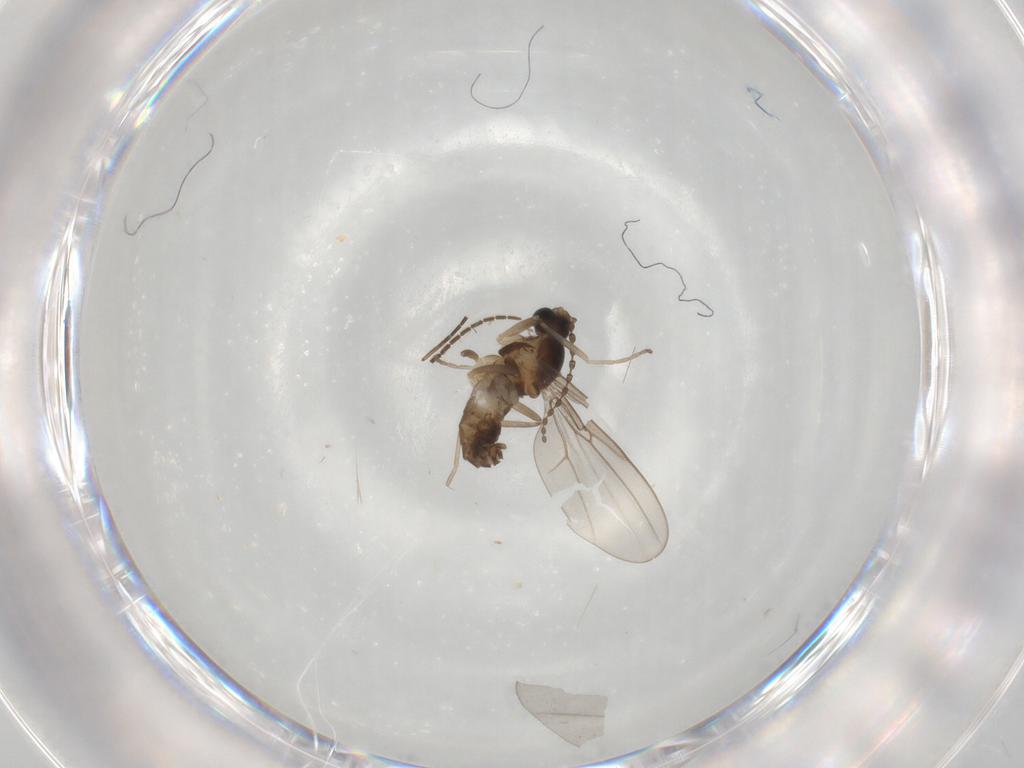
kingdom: Animalia
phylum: Arthropoda
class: Insecta
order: Diptera
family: Sciaridae
